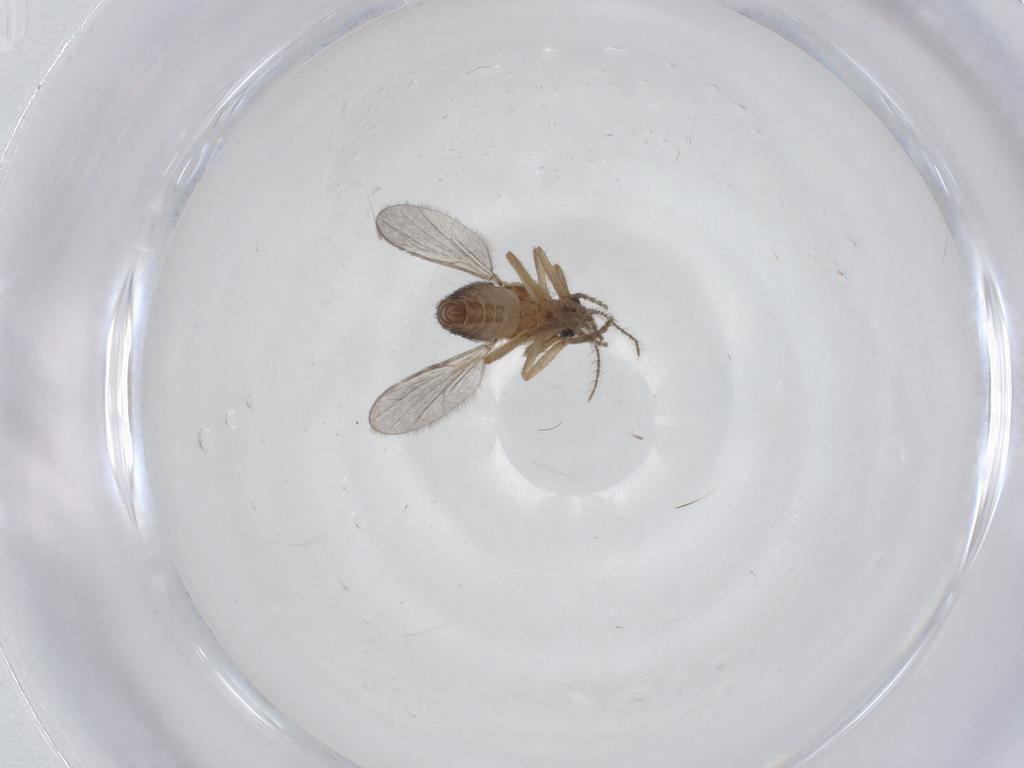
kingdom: Animalia
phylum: Arthropoda
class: Insecta
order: Diptera
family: Ceratopogonidae
